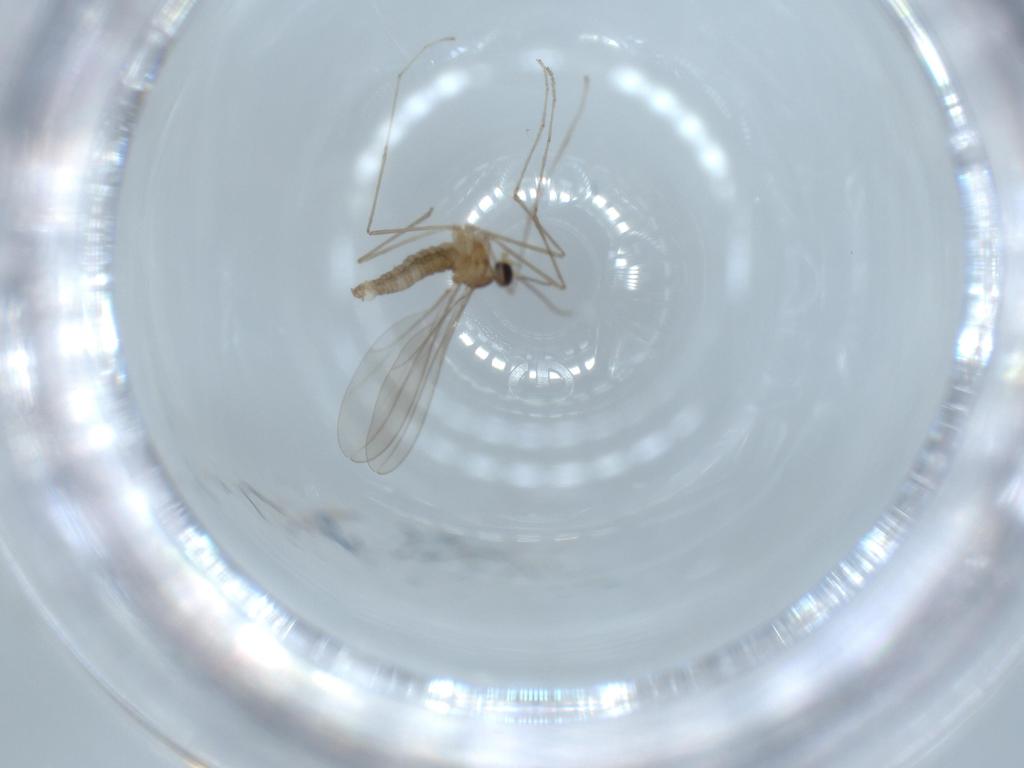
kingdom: Animalia
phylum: Arthropoda
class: Insecta
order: Diptera
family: Cecidomyiidae
